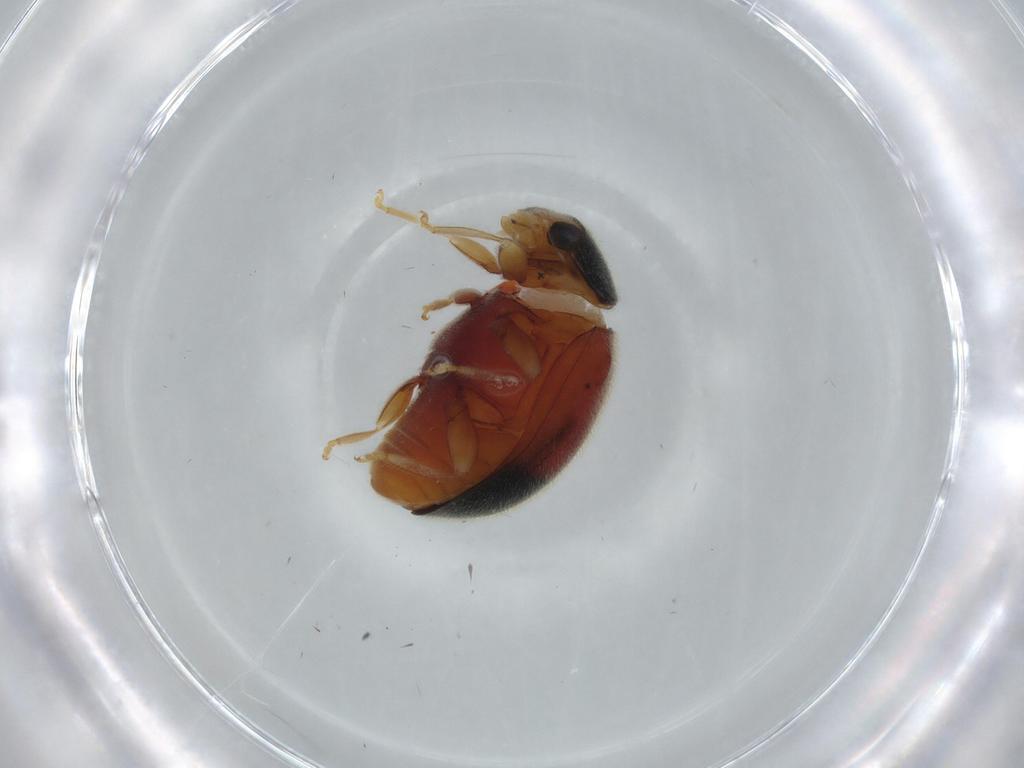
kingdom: Animalia
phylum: Arthropoda
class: Insecta
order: Coleoptera
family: Coccinellidae
